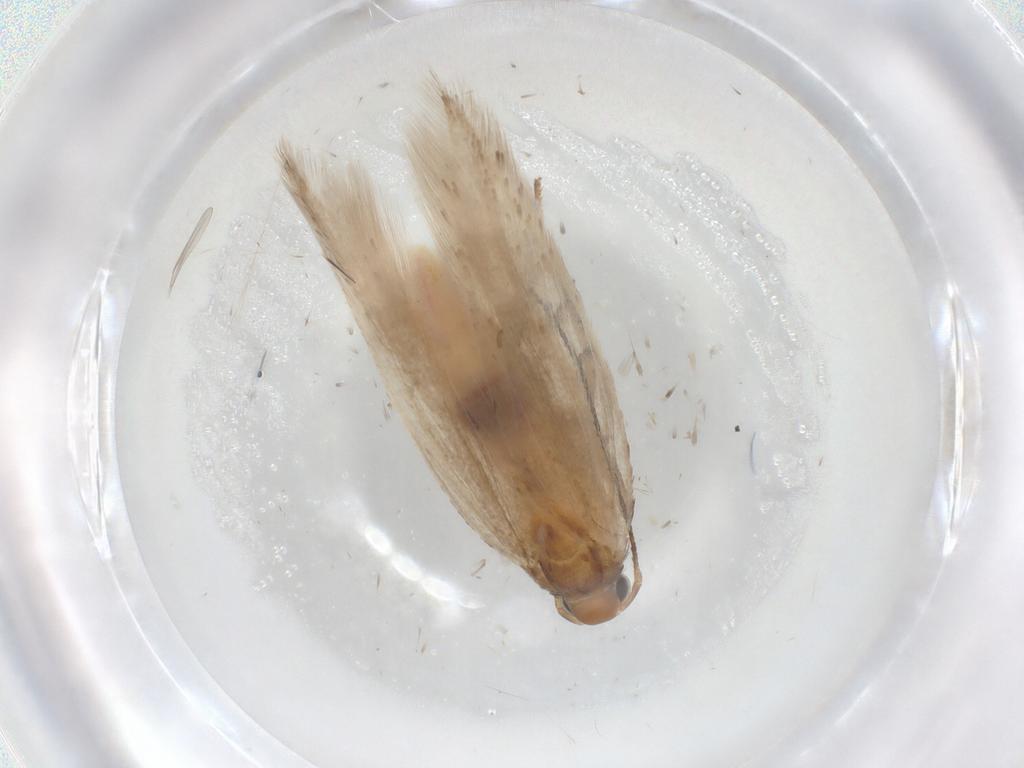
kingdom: Animalia
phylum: Arthropoda
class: Insecta
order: Lepidoptera
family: Gelechiidae
